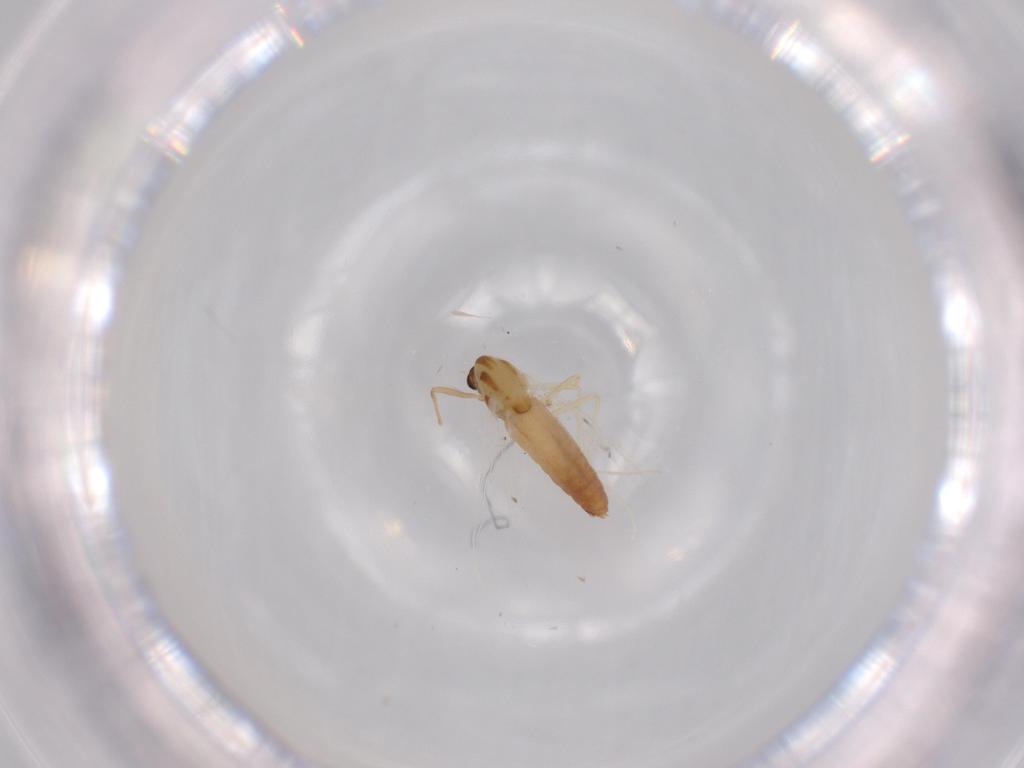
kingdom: Animalia
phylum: Arthropoda
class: Insecta
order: Diptera
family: Chironomidae
